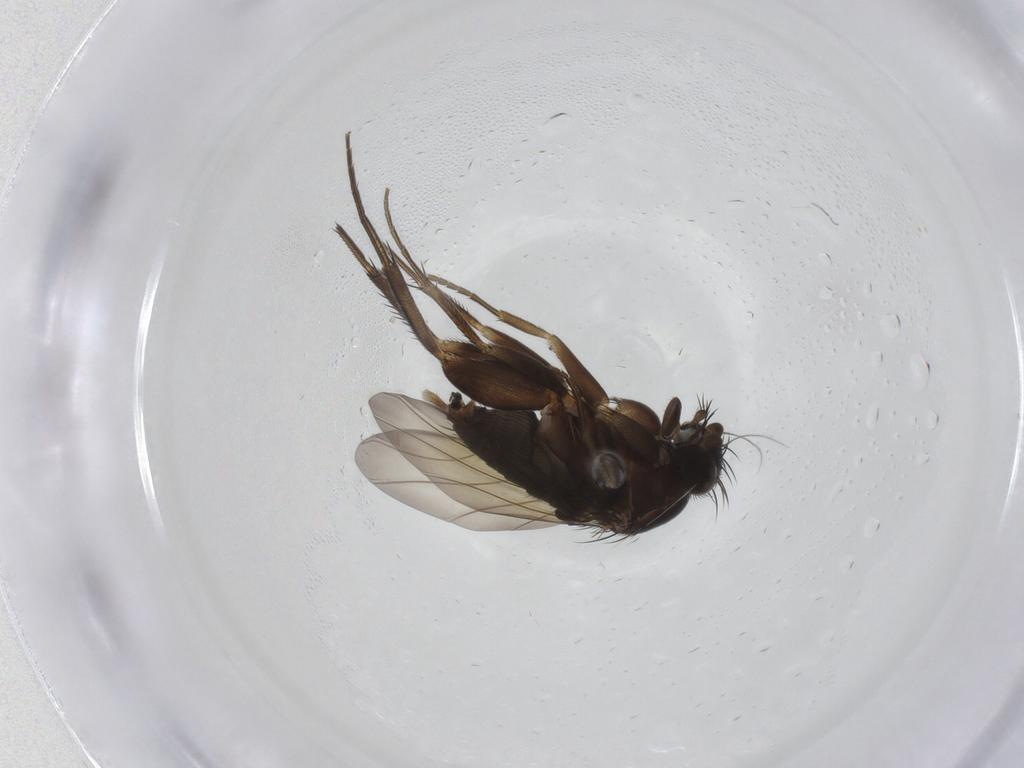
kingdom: Animalia
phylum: Arthropoda
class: Insecta
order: Diptera
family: Phoridae
